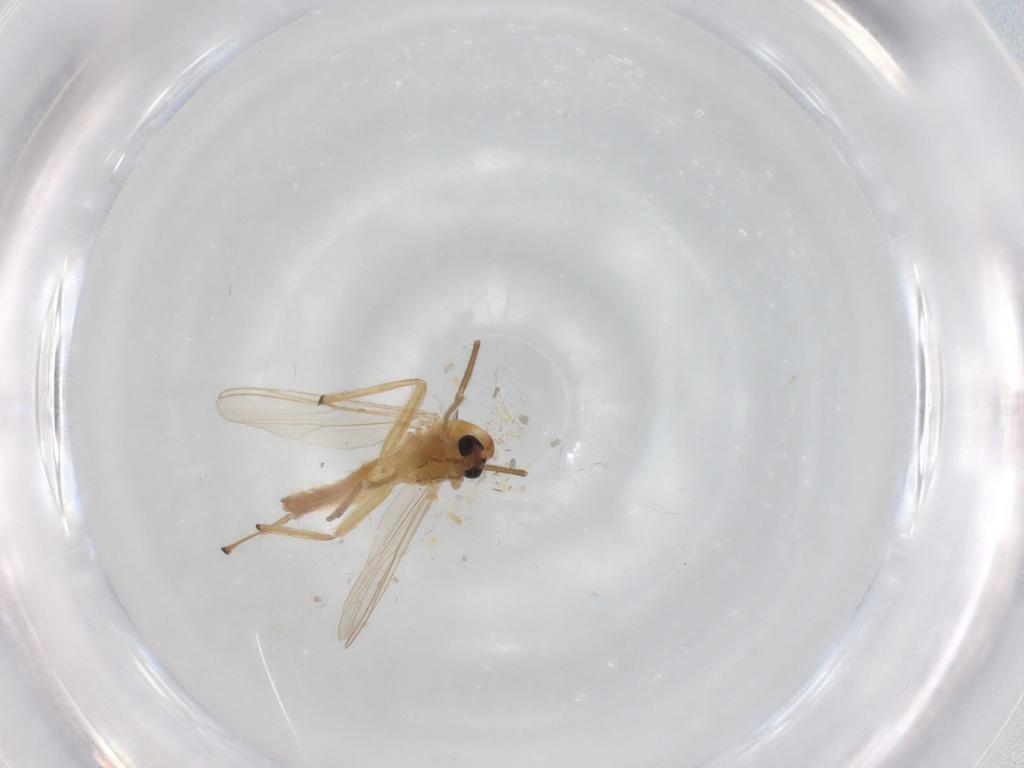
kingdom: Animalia
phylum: Arthropoda
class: Insecta
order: Diptera
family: Chironomidae
